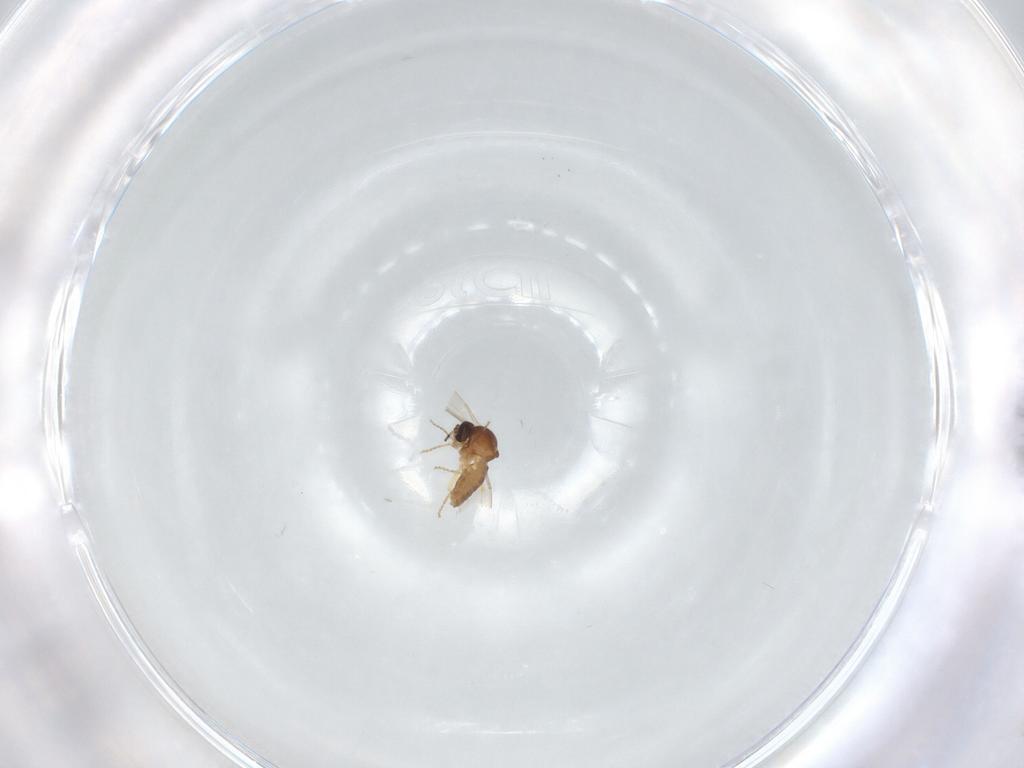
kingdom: Animalia
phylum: Arthropoda
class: Insecta
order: Diptera
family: Ceratopogonidae
